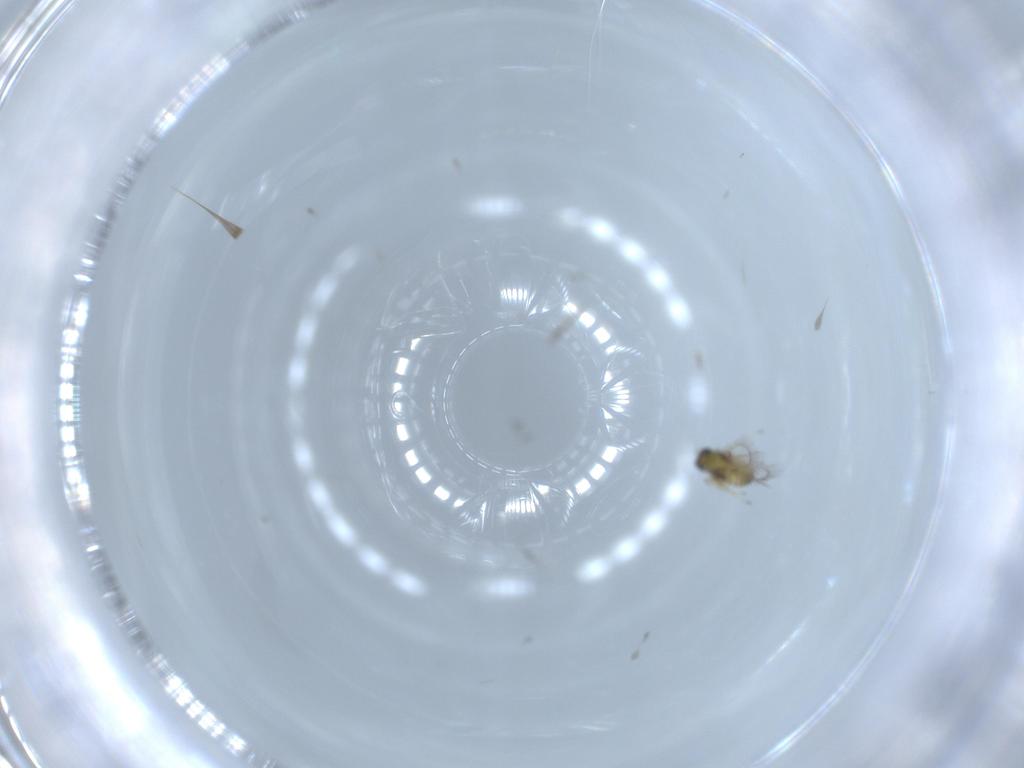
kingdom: Animalia
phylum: Arthropoda
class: Insecta
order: Hymenoptera
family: Trichogrammatidae
